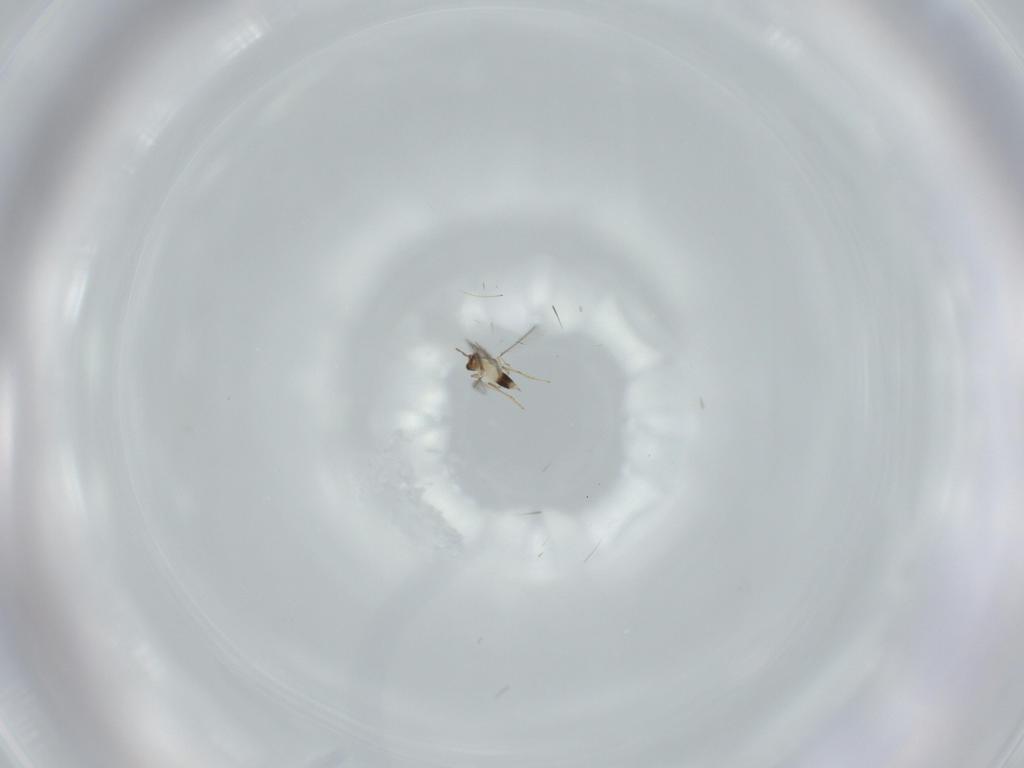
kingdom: Animalia
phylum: Arthropoda
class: Insecta
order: Hymenoptera
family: Mymaridae
